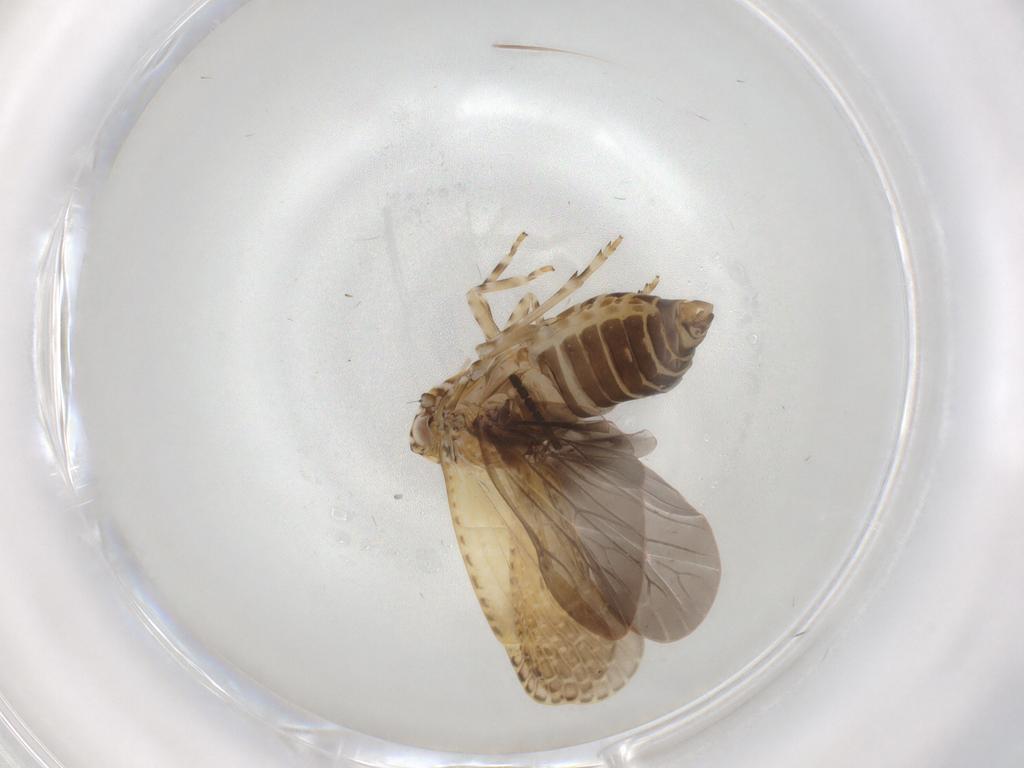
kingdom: Animalia
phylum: Arthropoda
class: Insecta
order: Hemiptera
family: Achilidae
